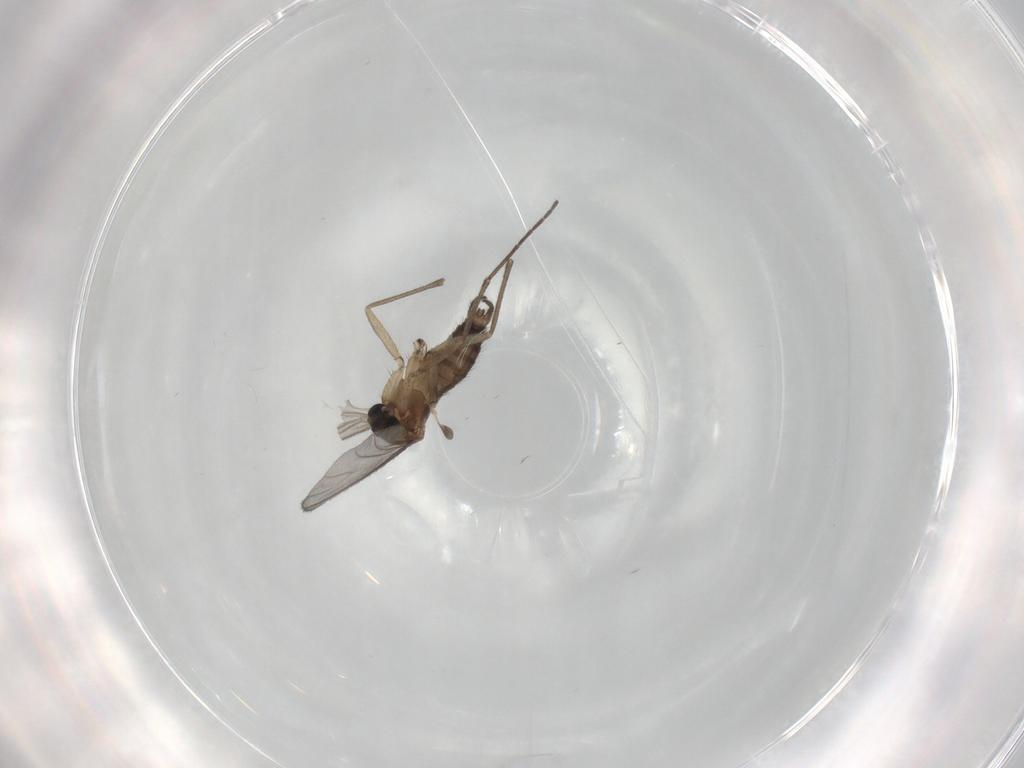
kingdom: Animalia
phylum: Arthropoda
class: Insecta
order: Diptera
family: Sciaridae
